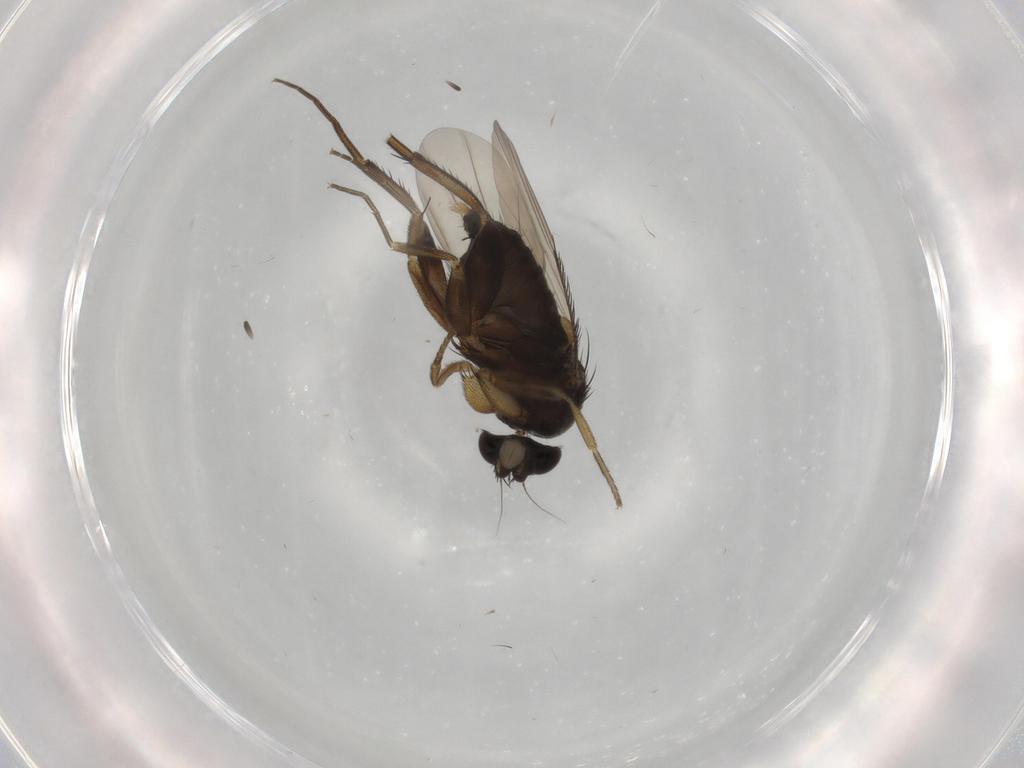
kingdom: Animalia
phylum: Arthropoda
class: Insecta
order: Diptera
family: Phoridae
